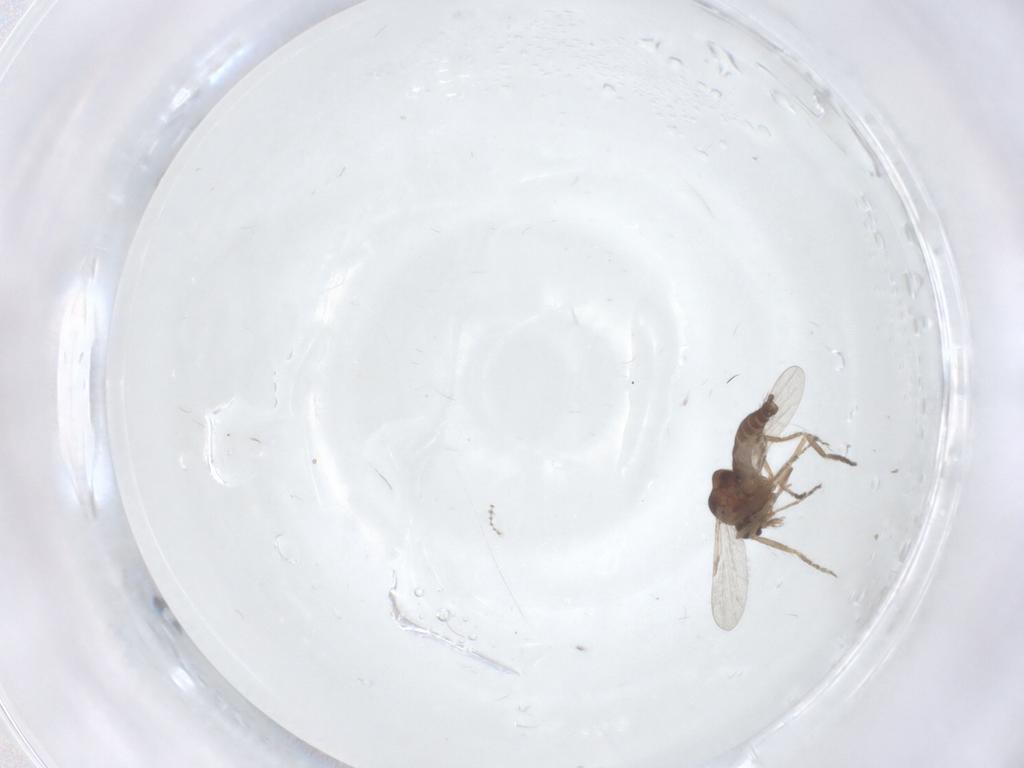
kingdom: Animalia
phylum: Arthropoda
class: Insecta
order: Diptera
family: Ceratopogonidae
